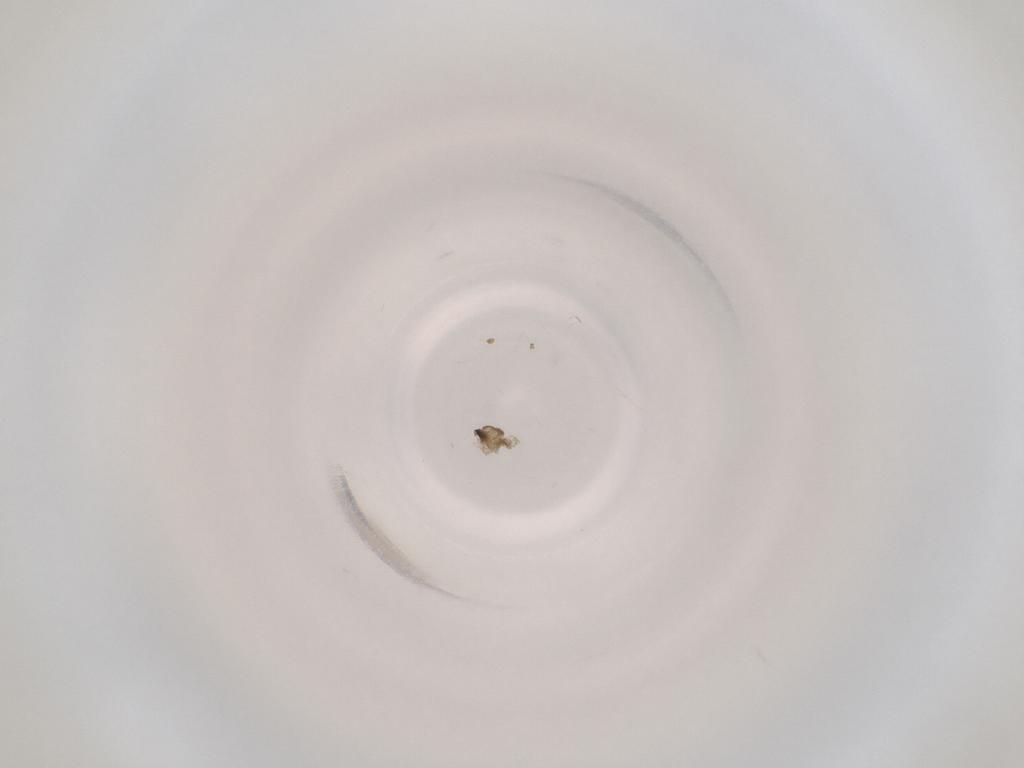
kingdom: Animalia
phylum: Arthropoda
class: Insecta
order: Diptera
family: Cecidomyiidae
